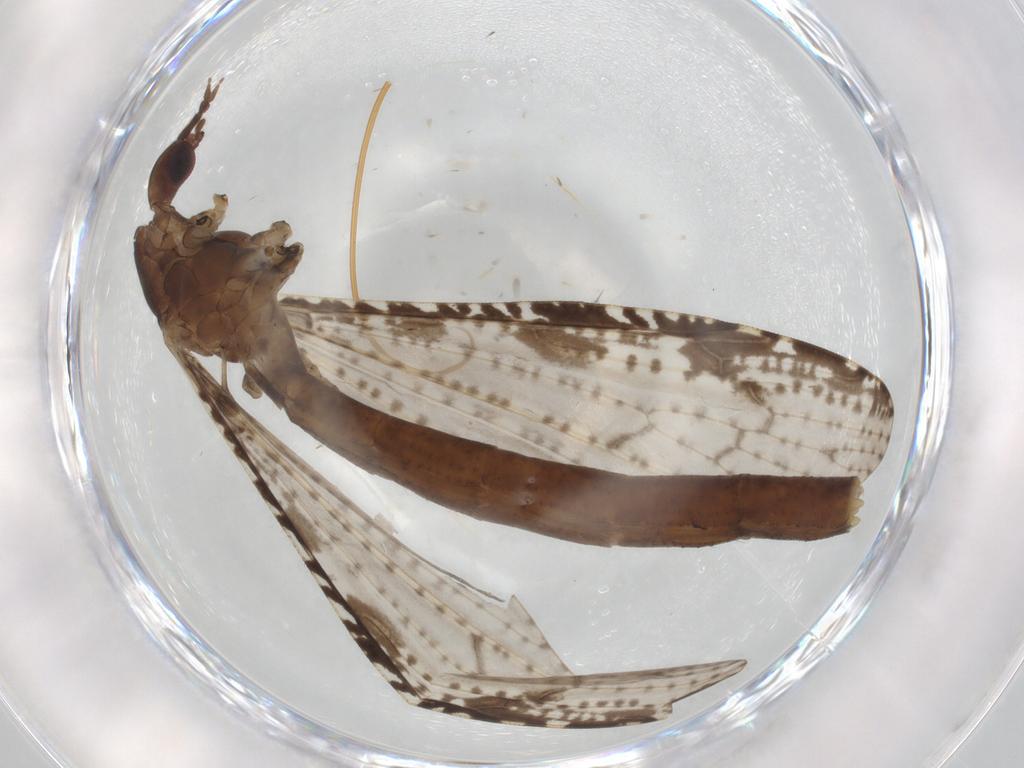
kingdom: Animalia
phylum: Arthropoda
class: Insecta
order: Diptera
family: Limoniidae
